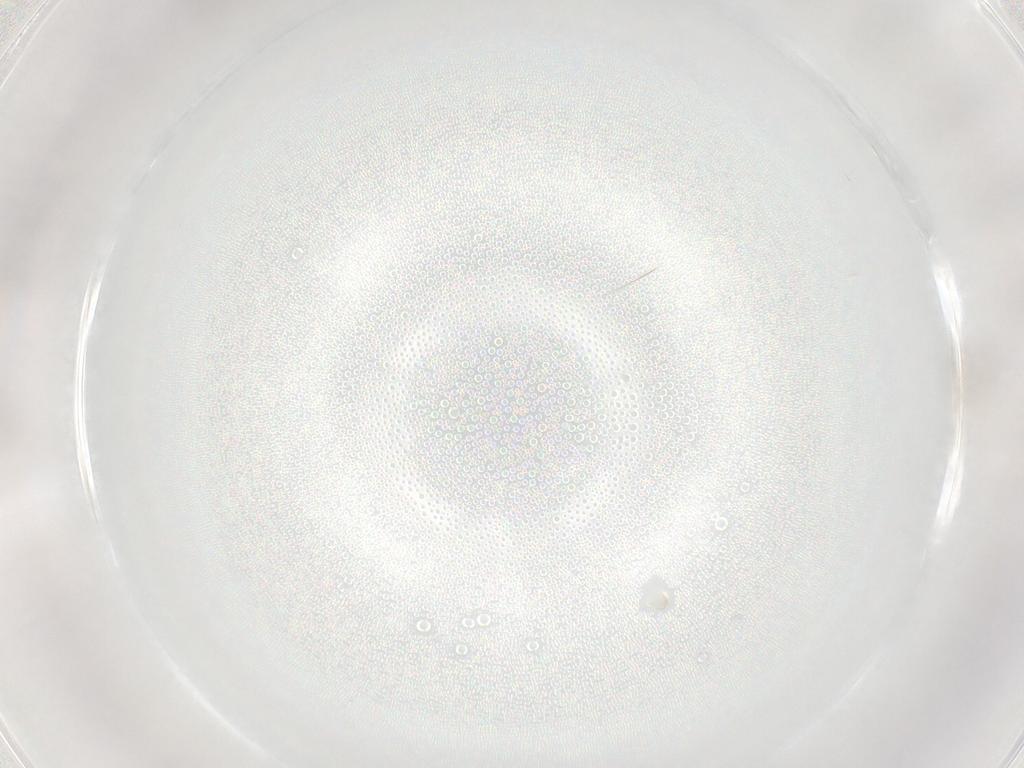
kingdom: Animalia
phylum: Arthropoda
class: Insecta
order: Diptera
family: Cecidomyiidae
